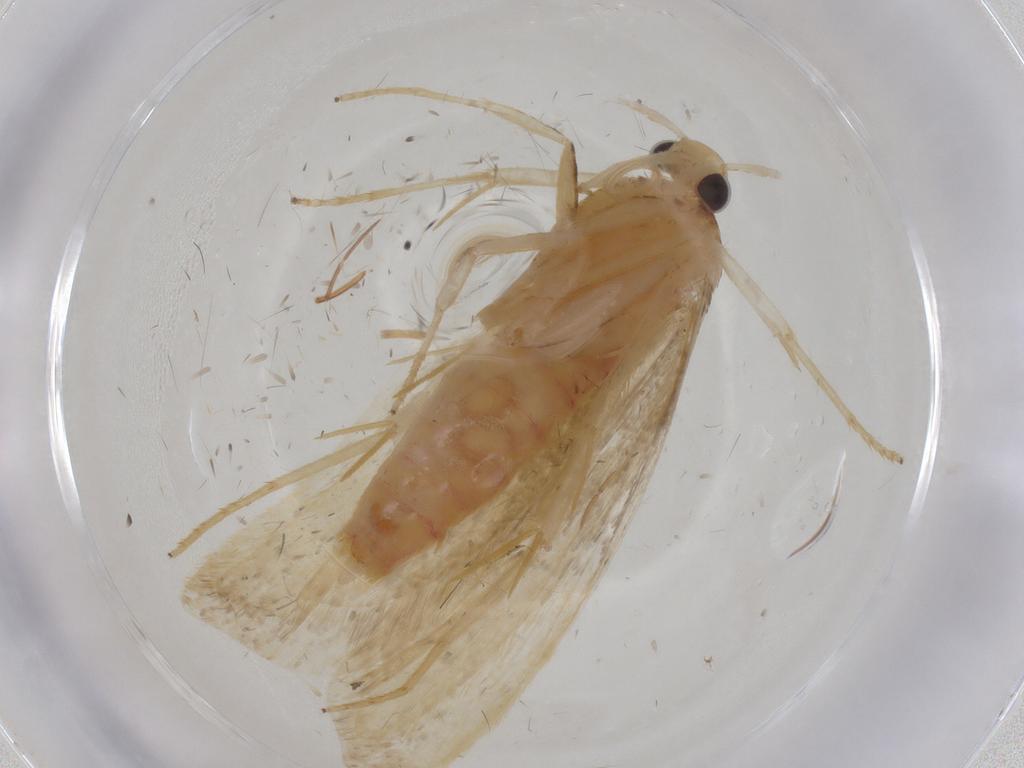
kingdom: Animalia
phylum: Arthropoda
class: Insecta
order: Lepidoptera
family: Lecithoceridae
